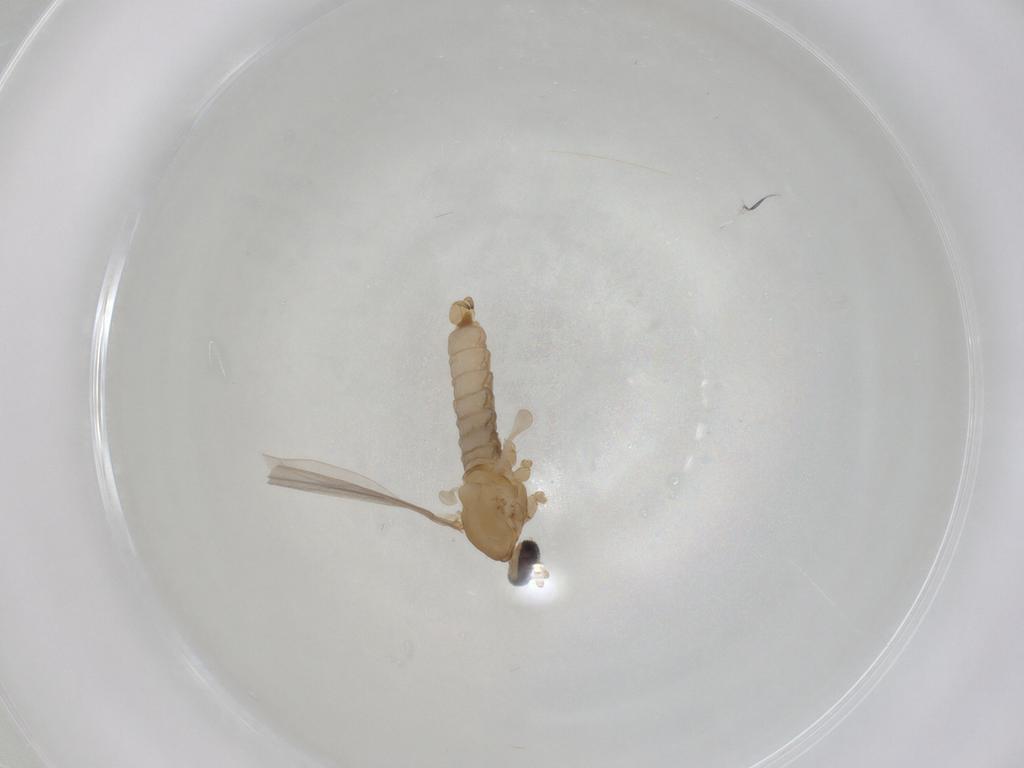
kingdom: Animalia
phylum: Arthropoda
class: Insecta
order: Diptera
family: Cecidomyiidae
